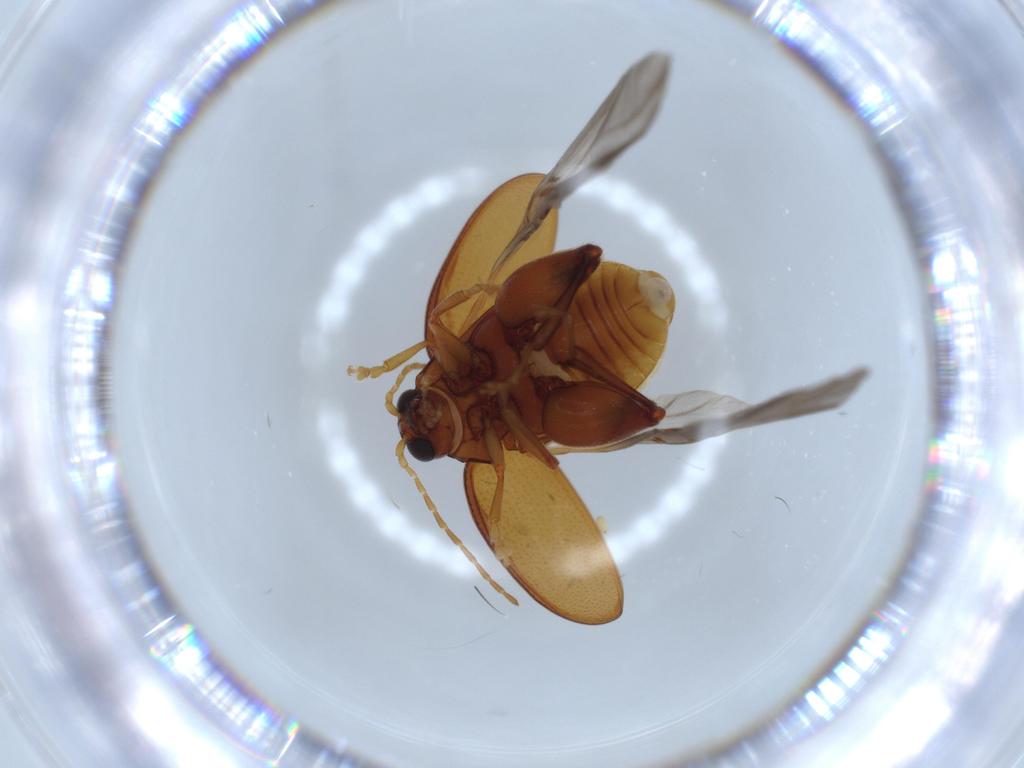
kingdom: Animalia
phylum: Arthropoda
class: Insecta
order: Coleoptera
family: Chrysomelidae
